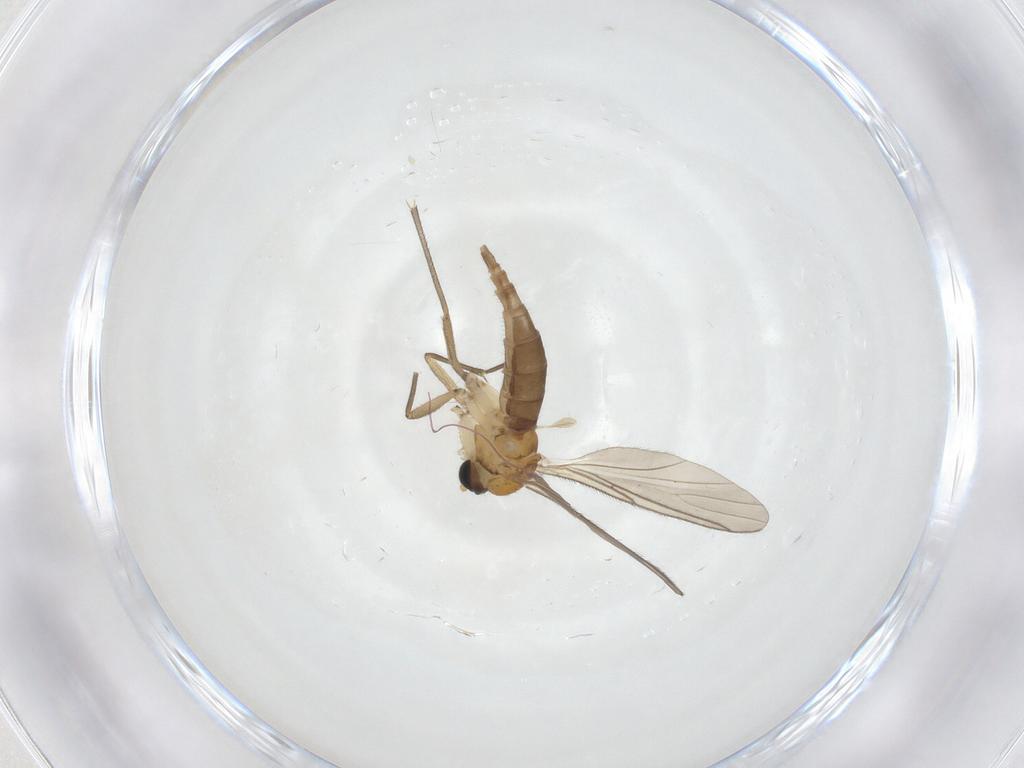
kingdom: Animalia
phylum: Arthropoda
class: Insecta
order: Diptera
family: Sciaridae
